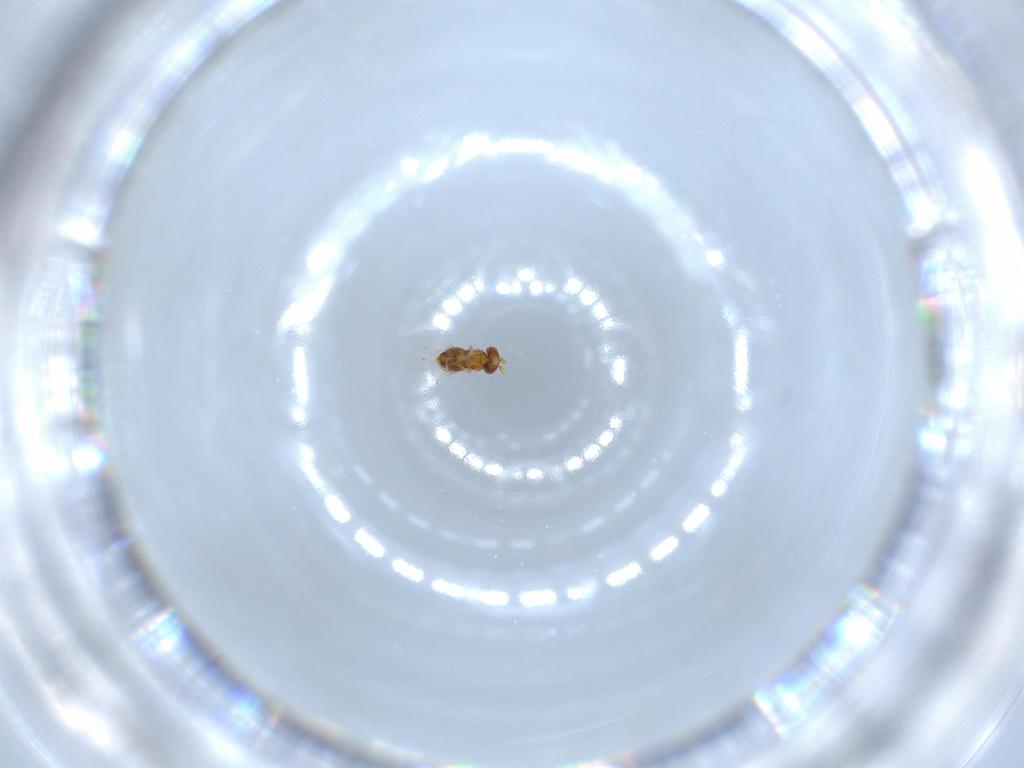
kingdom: Animalia
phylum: Arthropoda
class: Insecta
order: Hymenoptera
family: Trichogrammatidae
